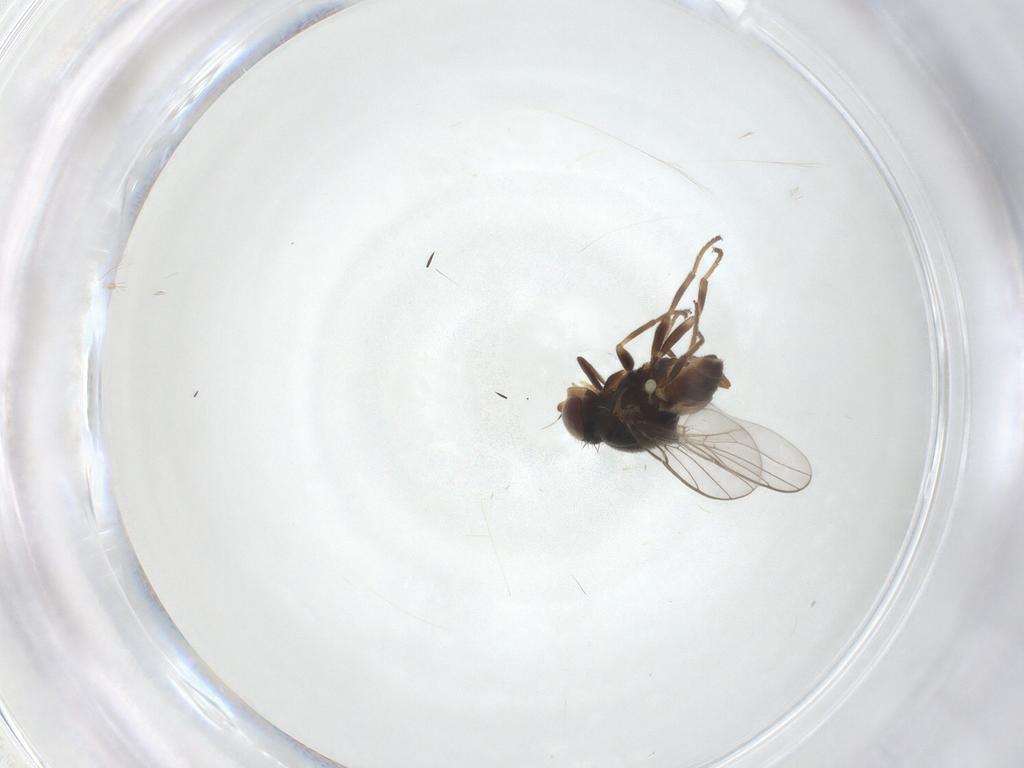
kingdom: Animalia
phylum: Arthropoda
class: Insecta
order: Diptera
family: Chloropidae
